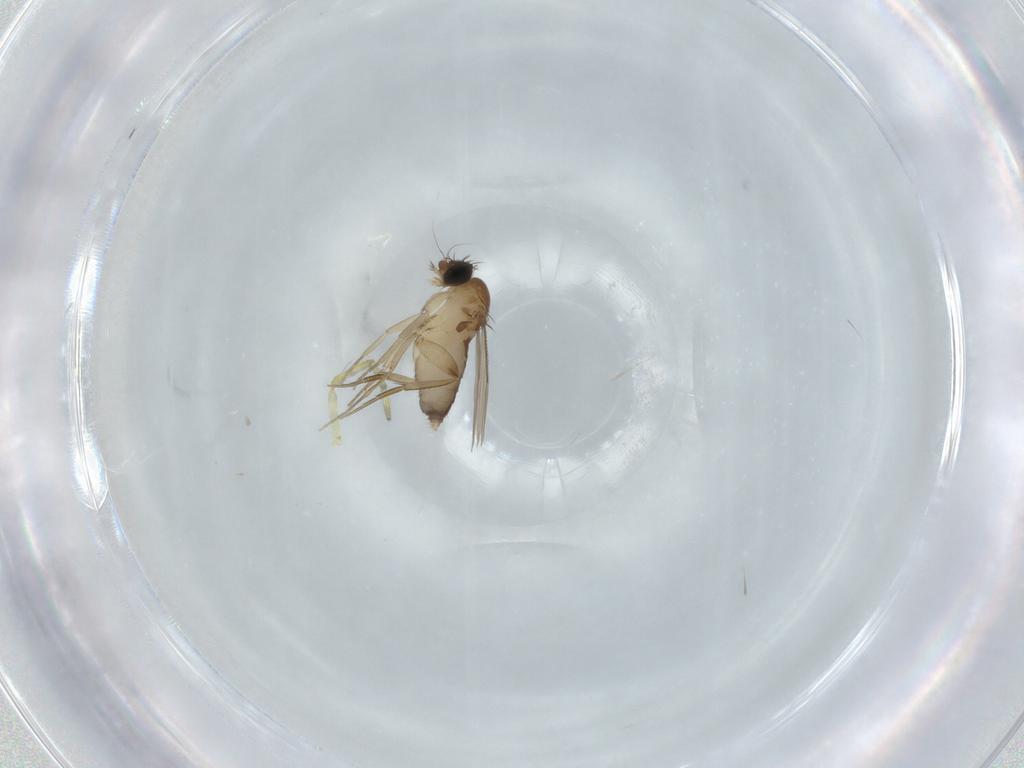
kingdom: Animalia
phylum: Arthropoda
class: Insecta
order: Diptera
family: Phoridae
